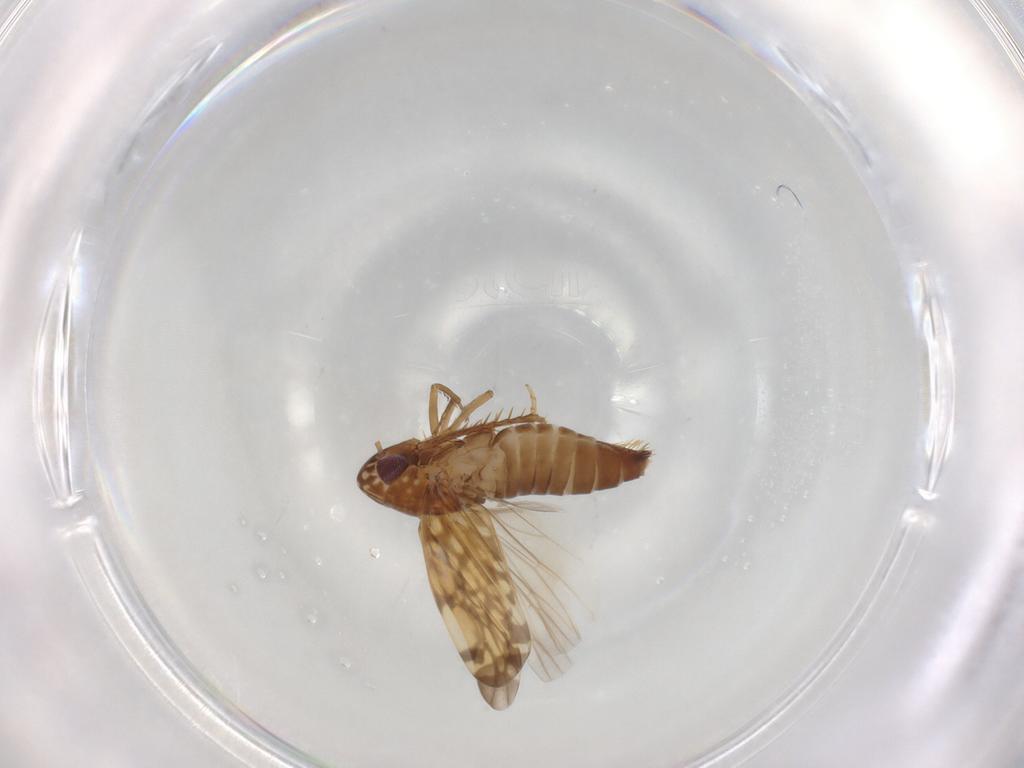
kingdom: Animalia
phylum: Arthropoda
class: Insecta
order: Hemiptera
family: Cicadellidae
